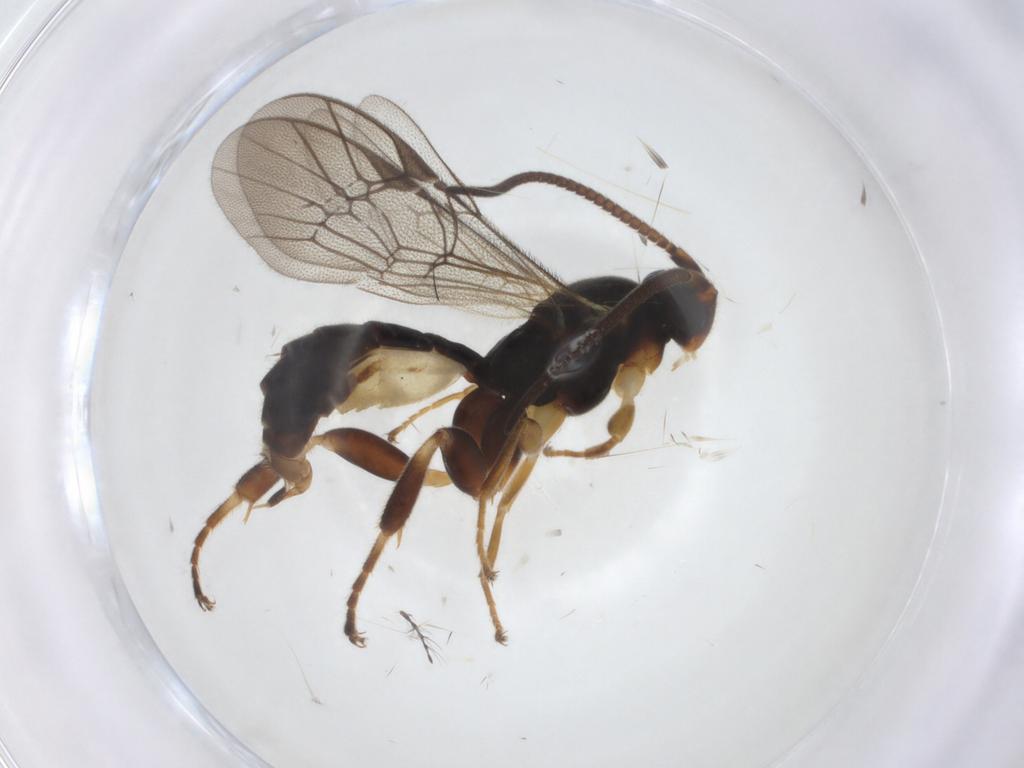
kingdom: Animalia
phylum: Arthropoda
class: Insecta
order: Hymenoptera
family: Ichneumonidae
